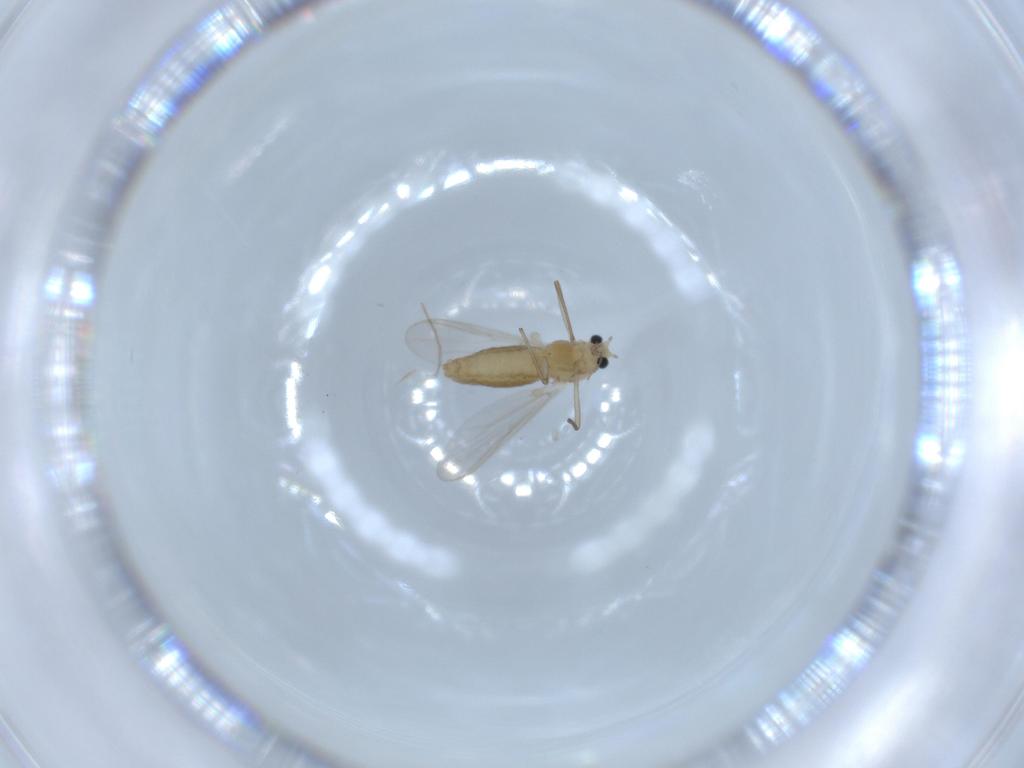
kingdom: Animalia
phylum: Arthropoda
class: Insecta
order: Diptera
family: Chironomidae
